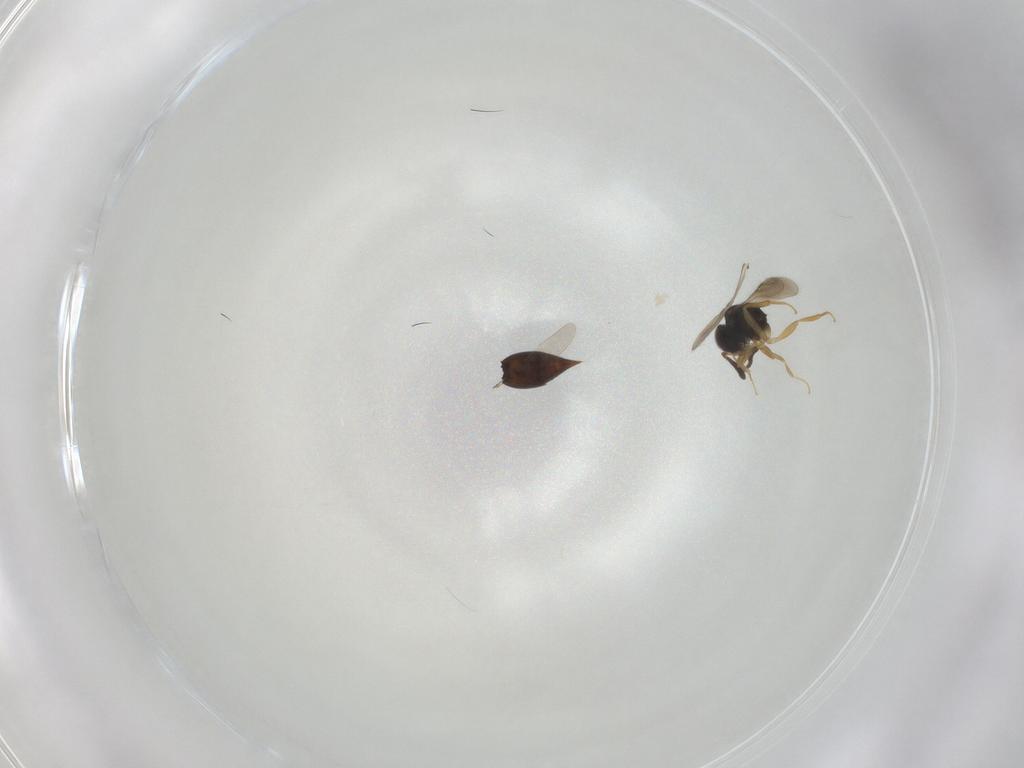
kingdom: Animalia
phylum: Arthropoda
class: Insecta
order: Hymenoptera
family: Ceraphronidae
